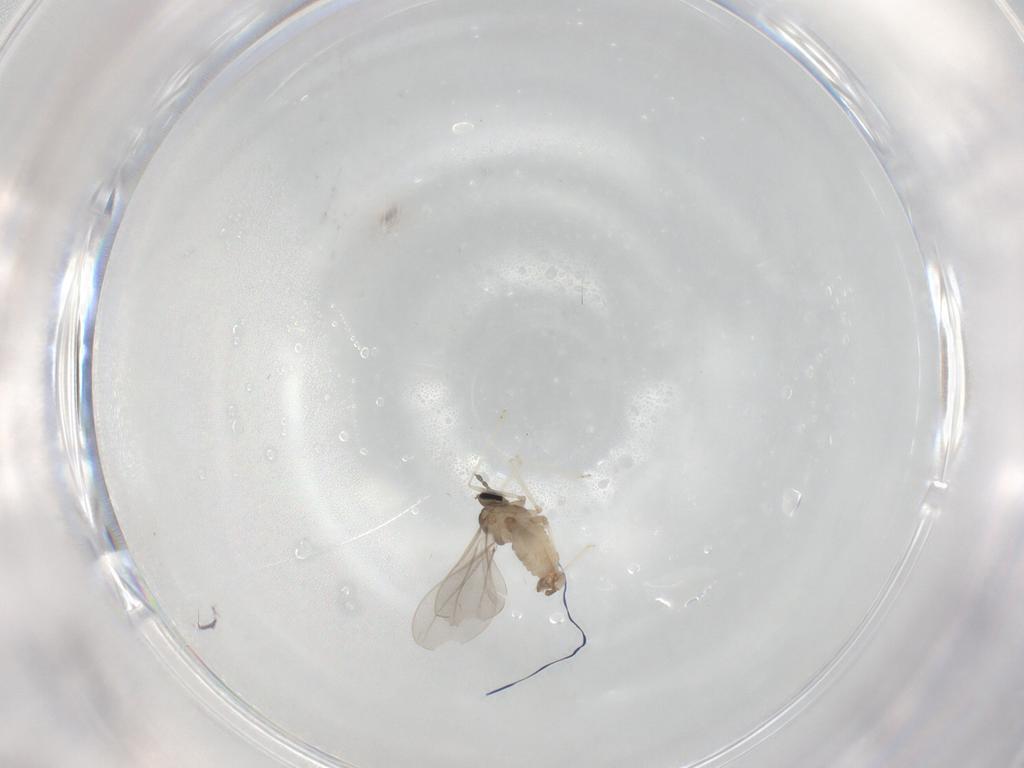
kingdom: Animalia
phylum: Arthropoda
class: Insecta
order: Diptera
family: Cecidomyiidae
